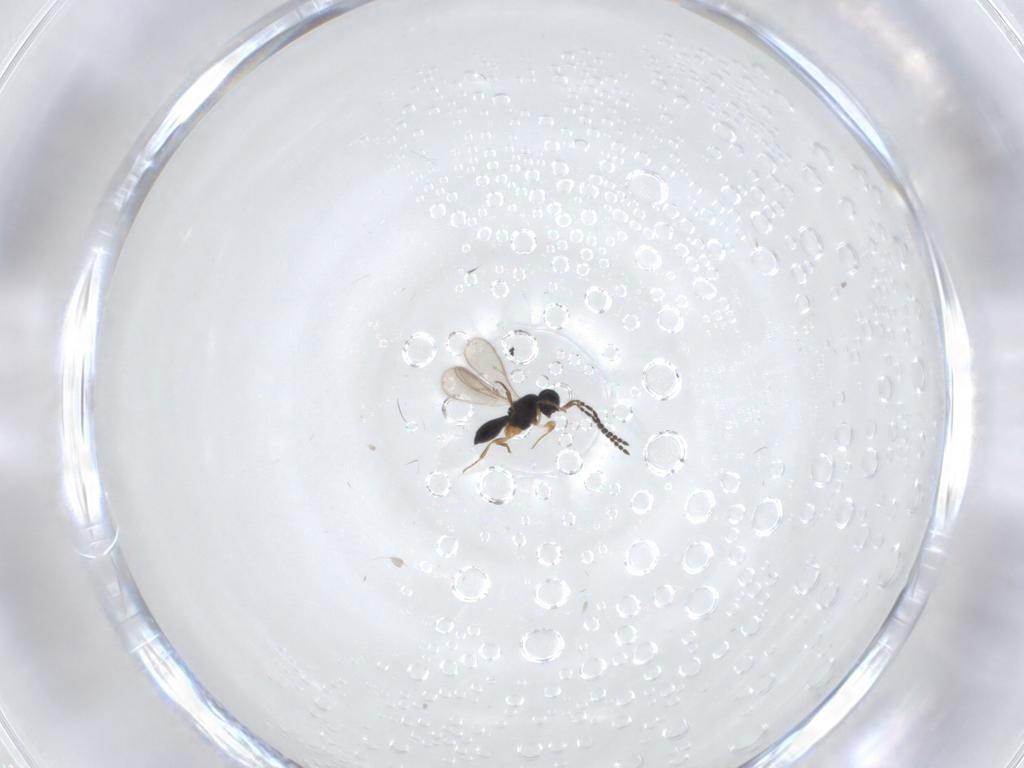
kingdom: Animalia
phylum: Arthropoda
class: Insecta
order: Hymenoptera
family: Scelionidae
